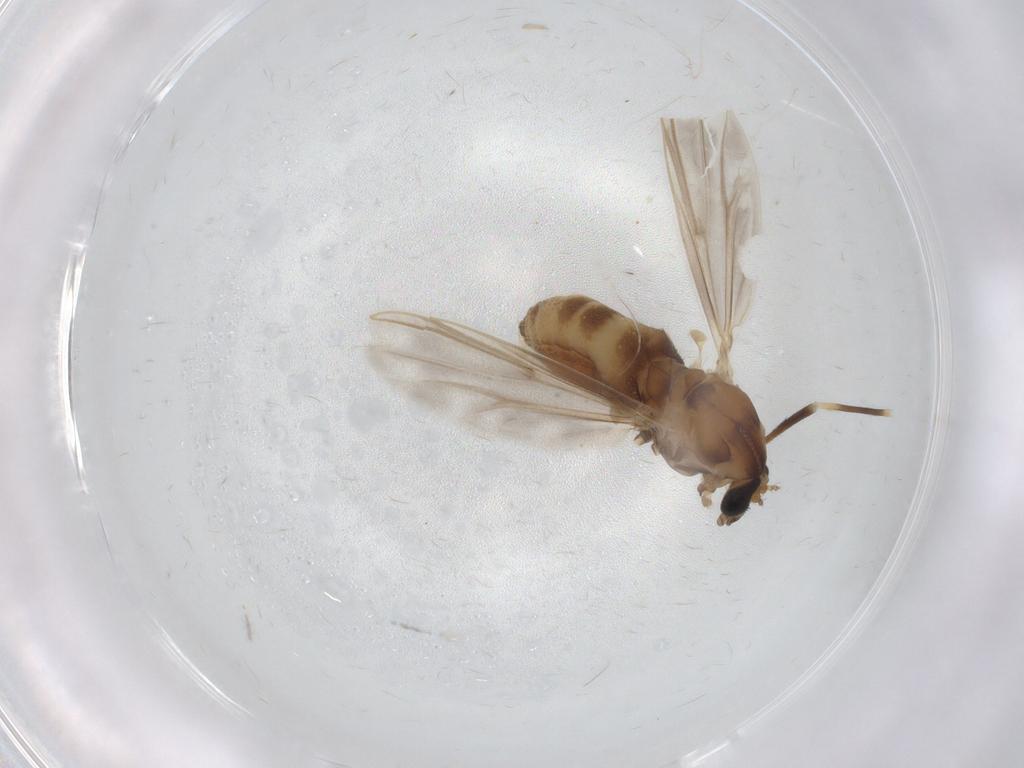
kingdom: Animalia
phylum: Arthropoda
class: Insecta
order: Diptera
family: Chironomidae
